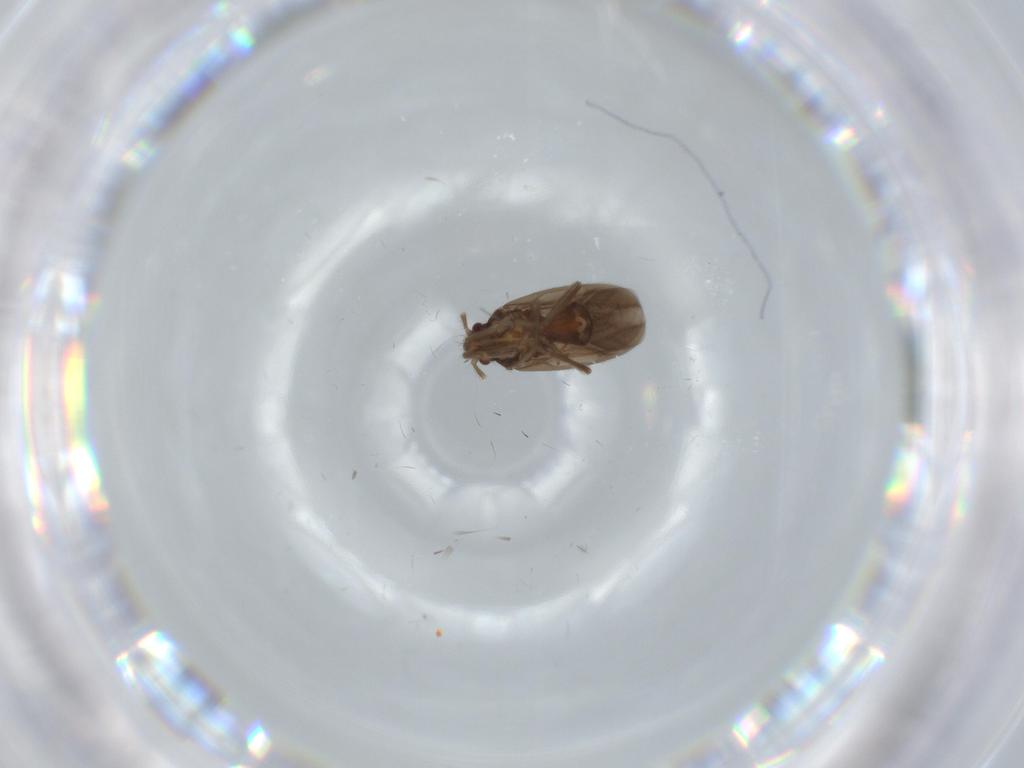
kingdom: Animalia
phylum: Arthropoda
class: Insecta
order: Hemiptera
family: Ceratocombidae
